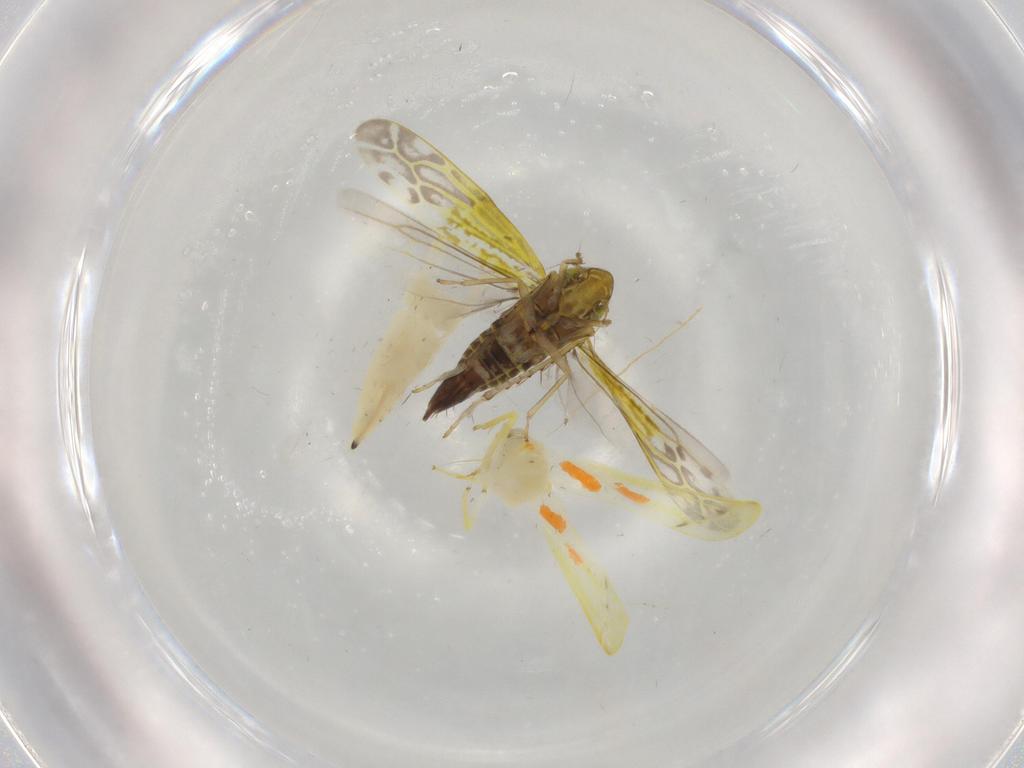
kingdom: Animalia
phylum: Arthropoda
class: Insecta
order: Hemiptera
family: Cicadellidae
